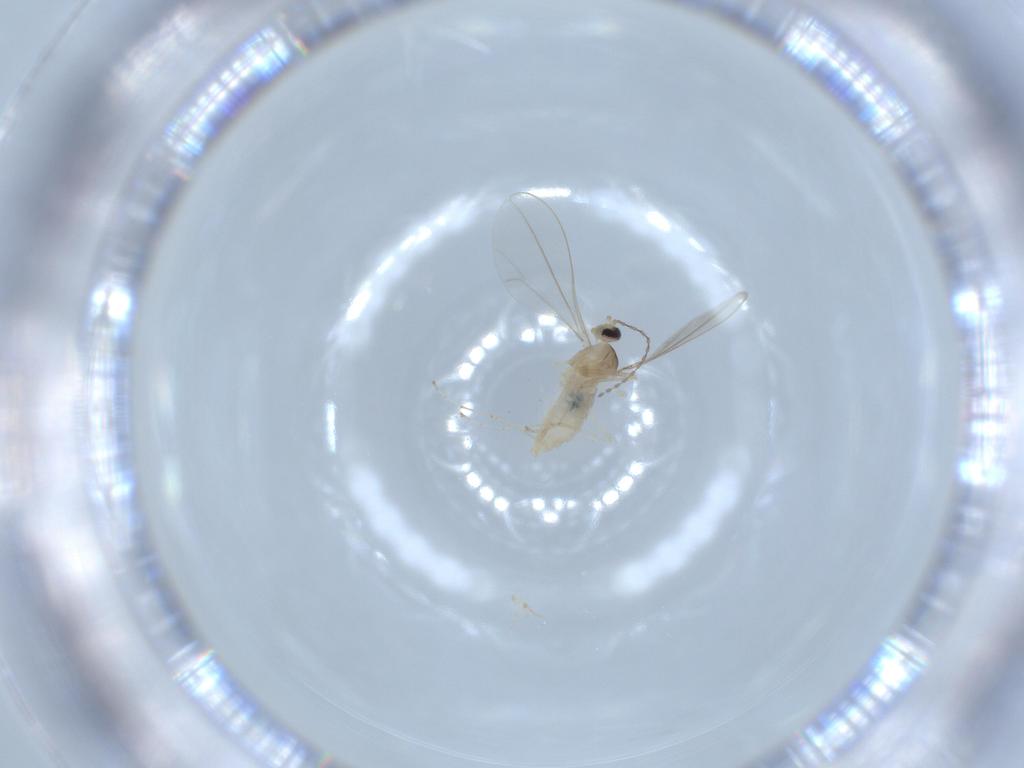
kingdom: Animalia
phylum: Arthropoda
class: Insecta
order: Diptera
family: Cecidomyiidae
